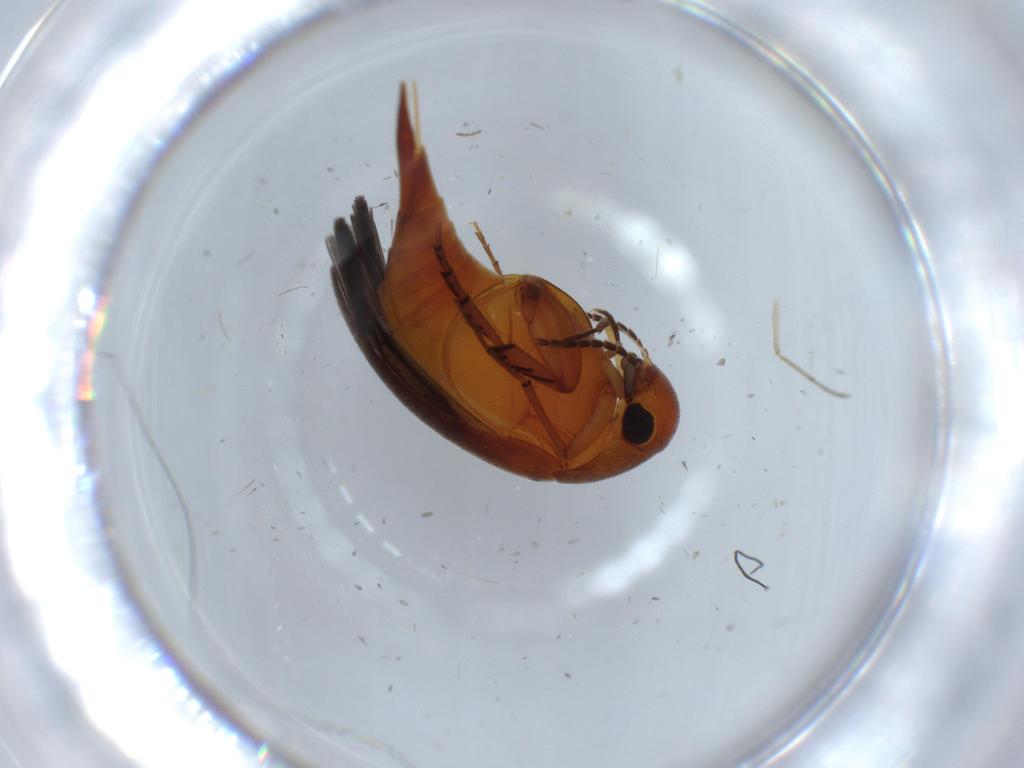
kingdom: Animalia
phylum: Arthropoda
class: Insecta
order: Coleoptera
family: Mordellidae
